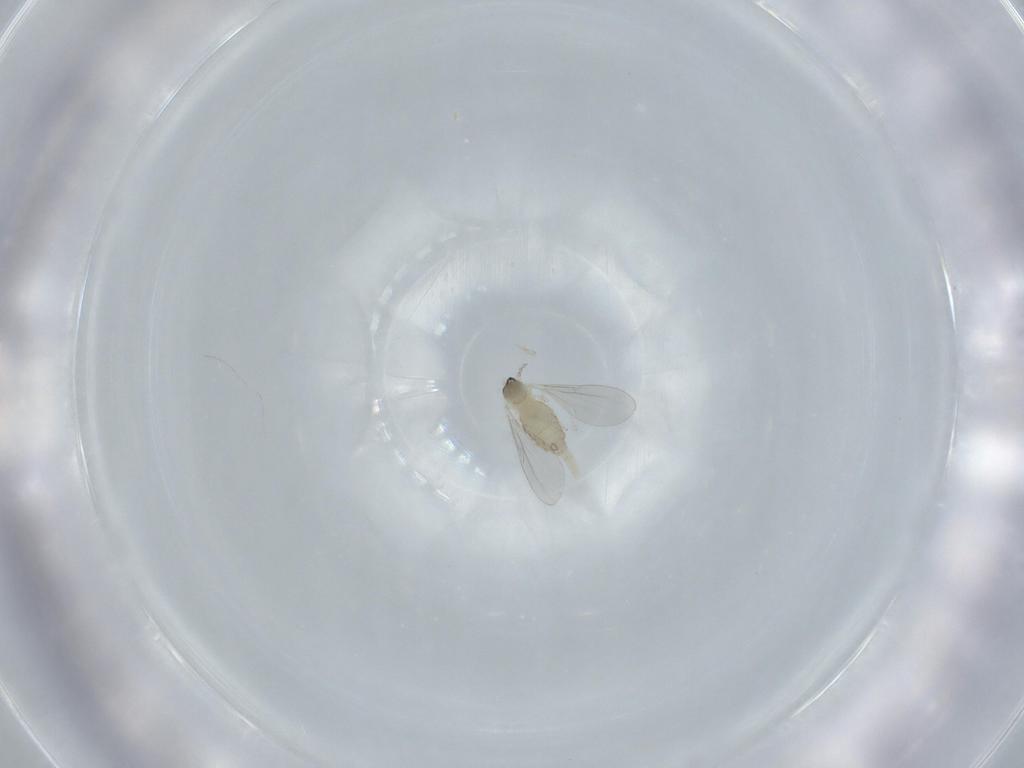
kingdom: Animalia
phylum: Arthropoda
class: Insecta
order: Diptera
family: Cecidomyiidae
